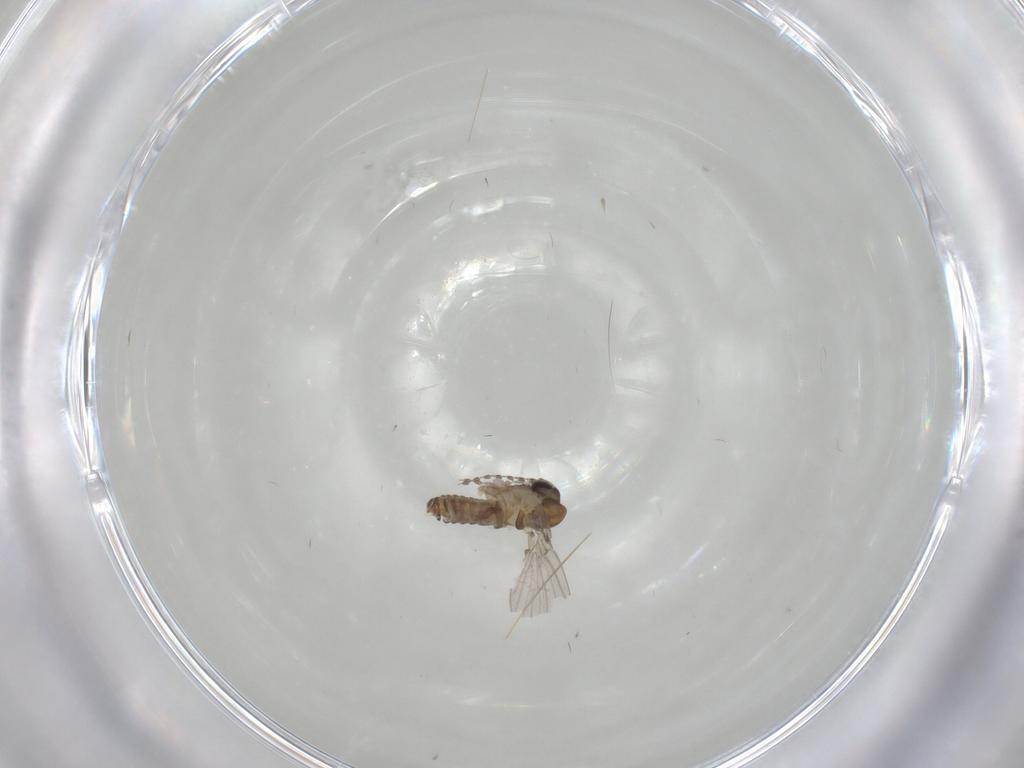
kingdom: Animalia
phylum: Arthropoda
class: Insecta
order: Diptera
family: Psychodidae
